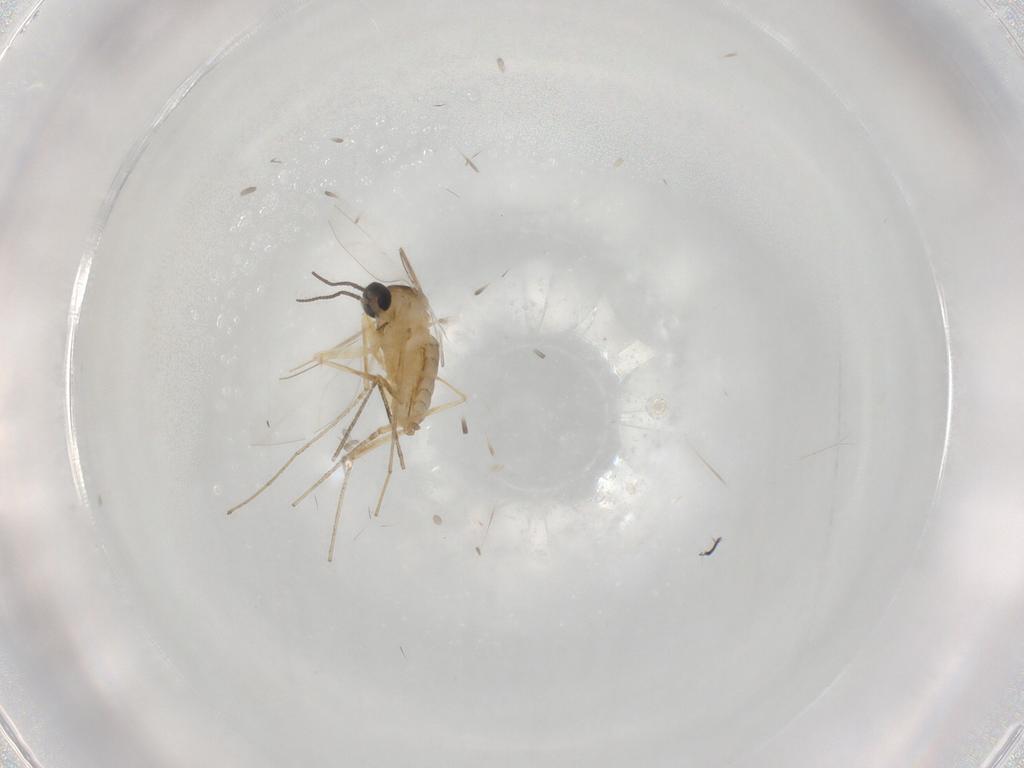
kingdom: Animalia
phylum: Arthropoda
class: Insecta
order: Diptera
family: Cecidomyiidae
